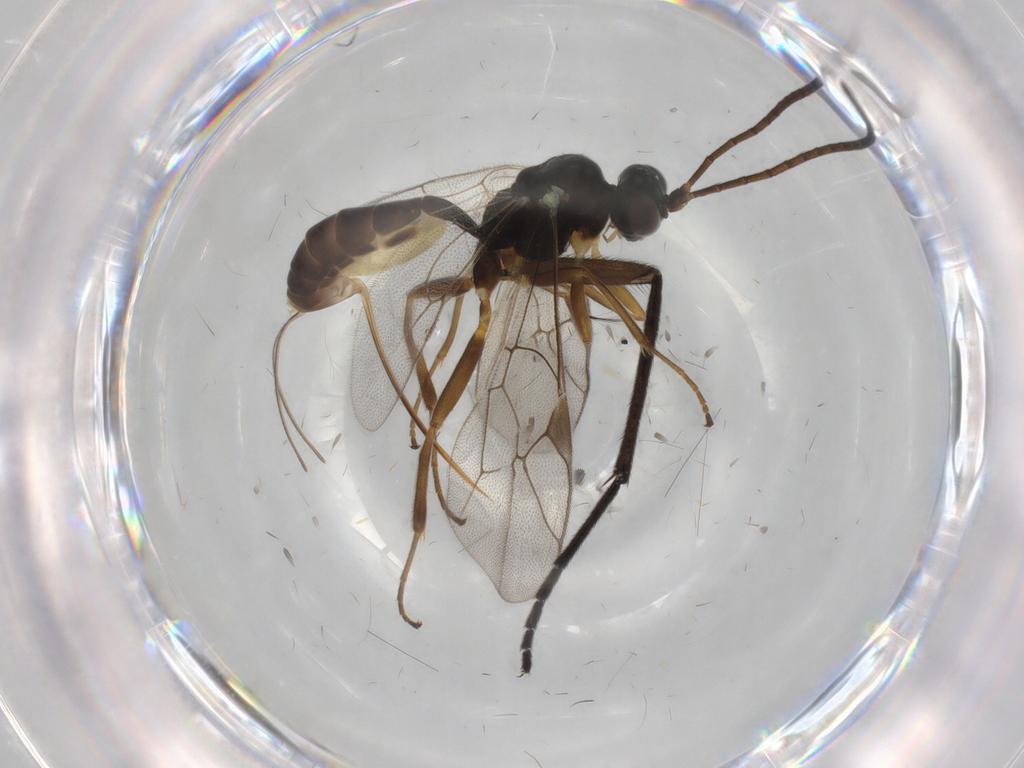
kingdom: Animalia
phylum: Arthropoda
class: Insecta
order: Hymenoptera
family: Ichneumonidae
